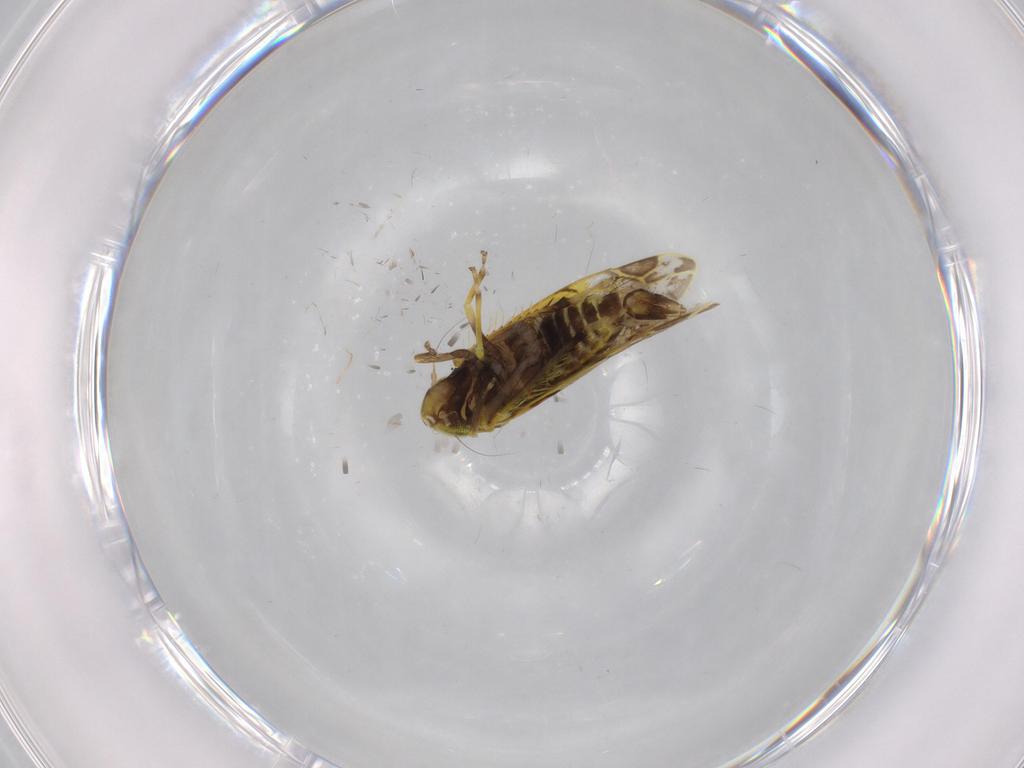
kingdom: Animalia
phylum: Arthropoda
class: Insecta
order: Hemiptera
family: Cicadellidae
